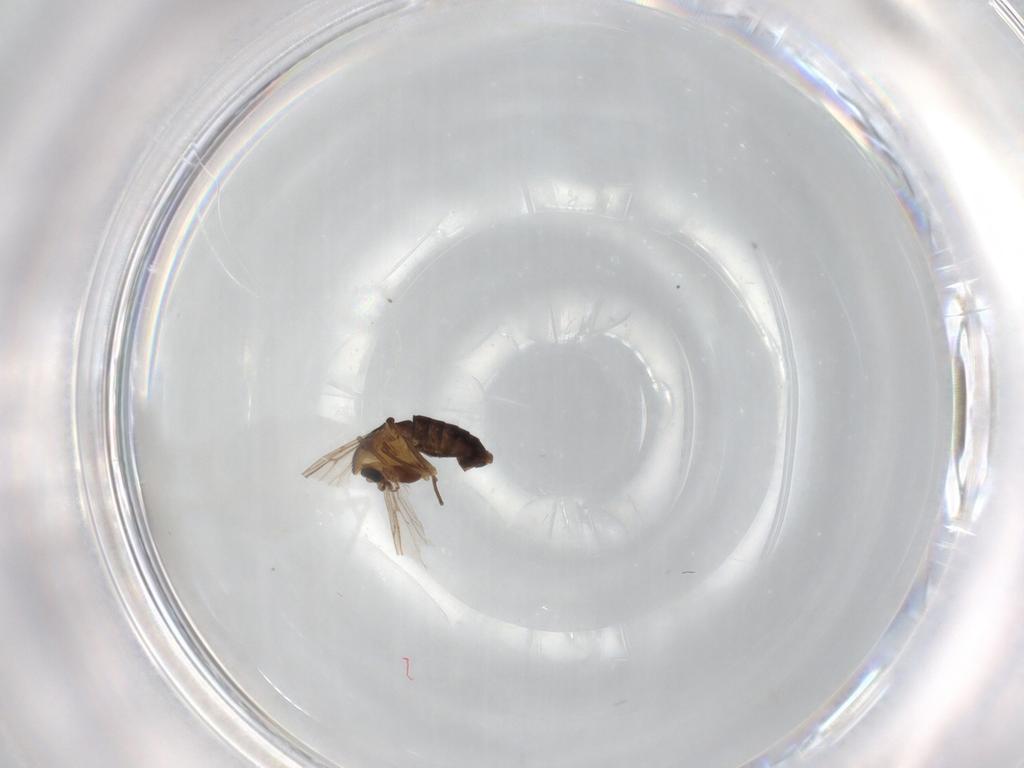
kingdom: Animalia
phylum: Arthropoda
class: Insecta
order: Diptera
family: Chironomidae
